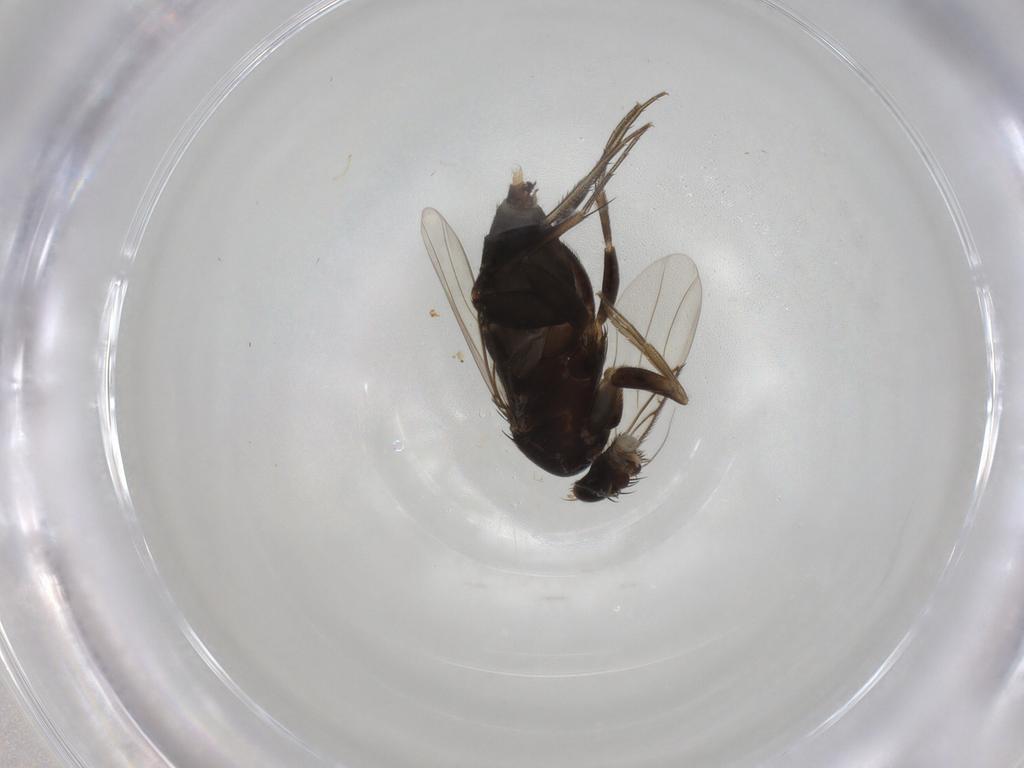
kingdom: Animalia
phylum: Arthropoda
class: Insecta
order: Diptera
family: Phoridae
